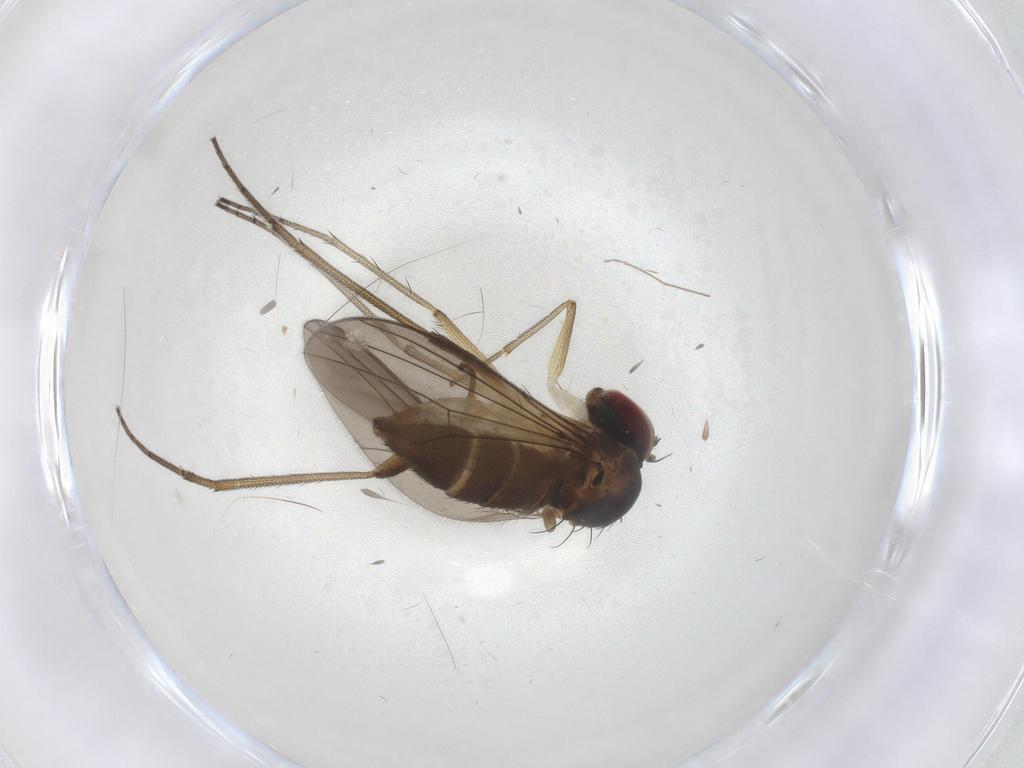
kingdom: Animalia
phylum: Arthropoda
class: Insecta
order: Diptera
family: Dolichopodidae
